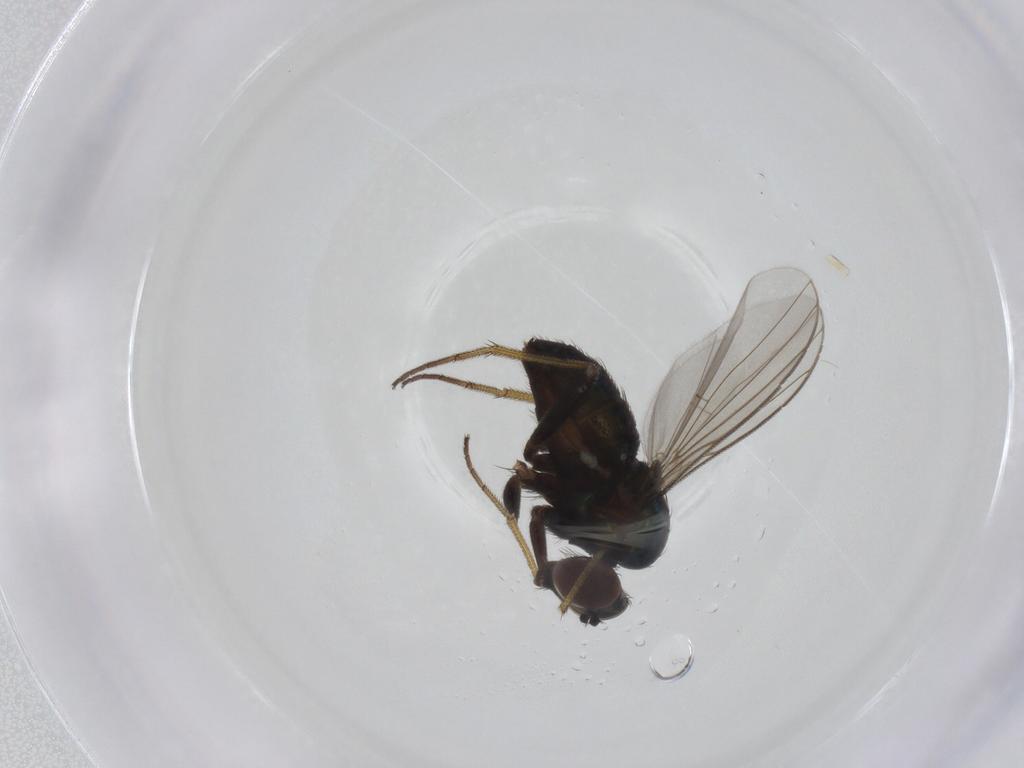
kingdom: Animalia
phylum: Arthropoda
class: Insecta
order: Diptera
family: Dolichopodidae
